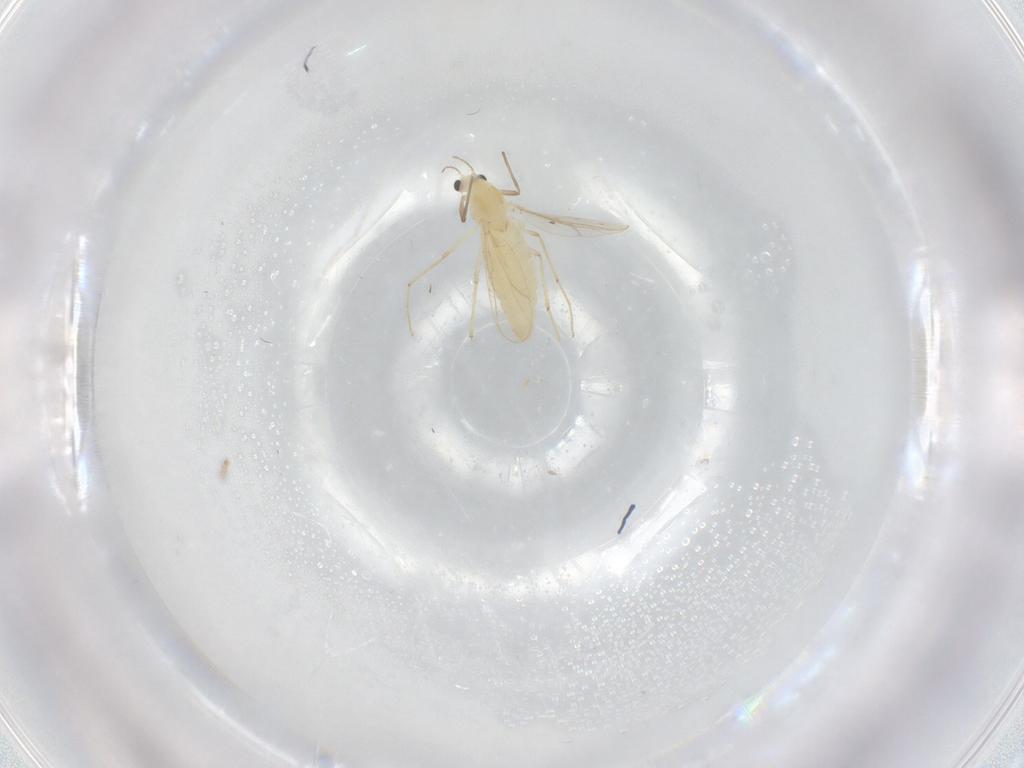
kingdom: Animalia
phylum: Arthropoda
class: Insecta
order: Diptera
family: Chironomidae
